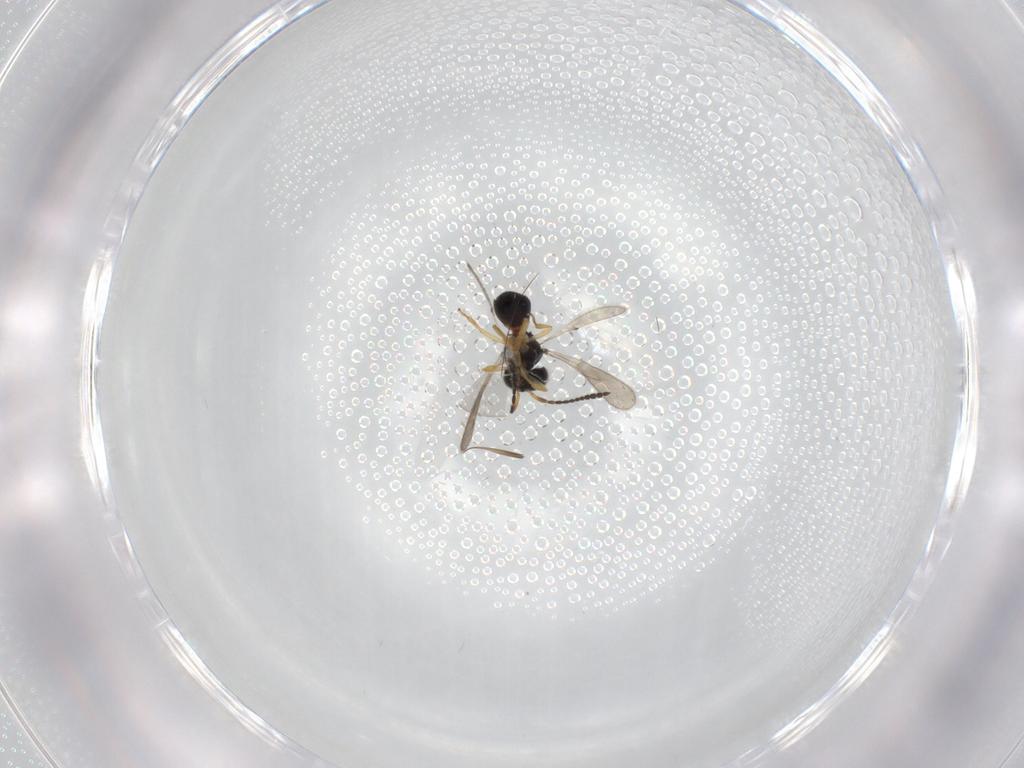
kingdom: Animalia
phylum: Arthropoda
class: Insecta
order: Hymenoptera
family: Scelionidae
